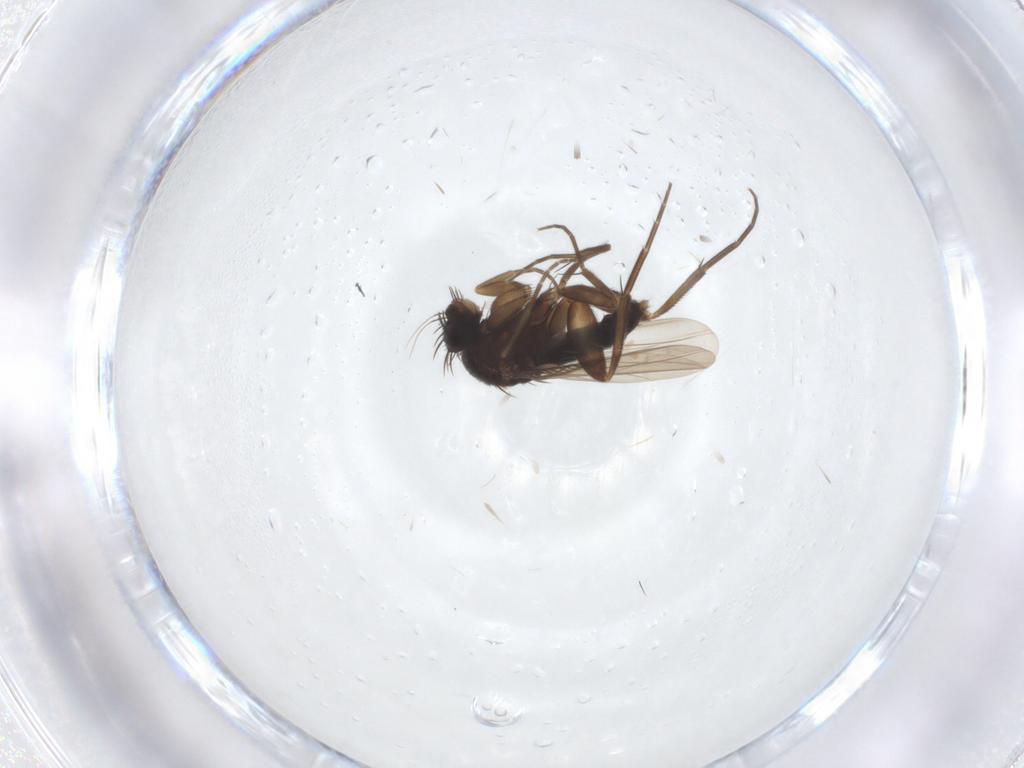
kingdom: Animalia
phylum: Arthropoda
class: Insecta
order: Diptera
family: Phoridae
